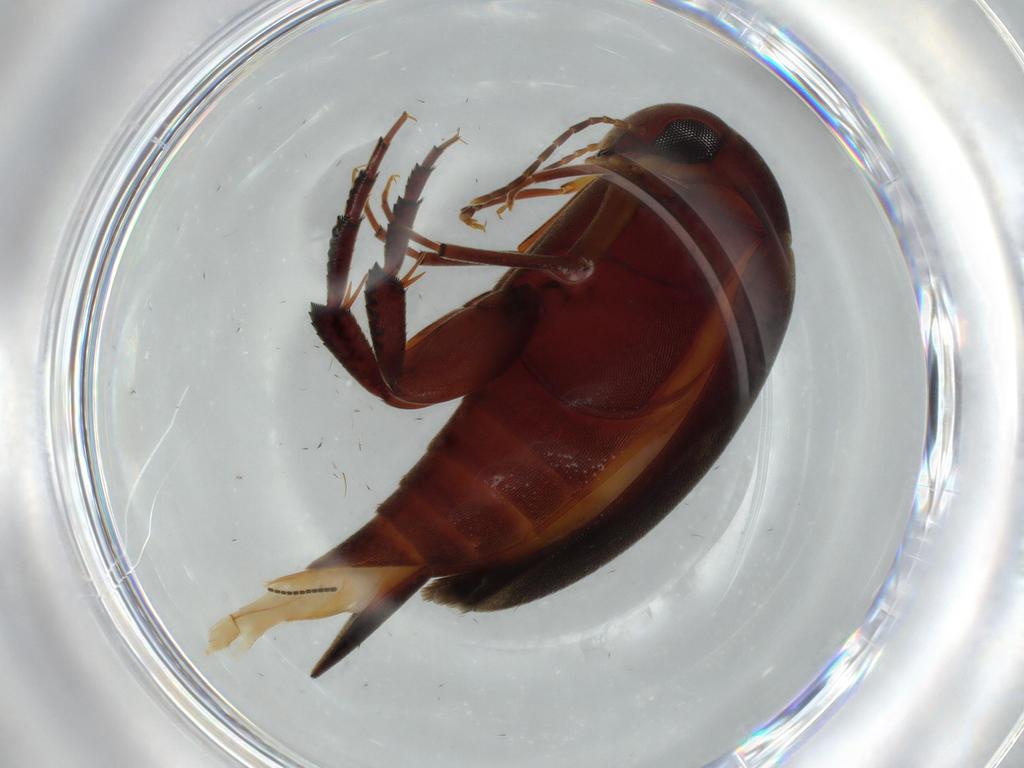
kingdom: Animalia
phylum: Arthropoda
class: Insecta
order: Coleoptera
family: Mordellidae
